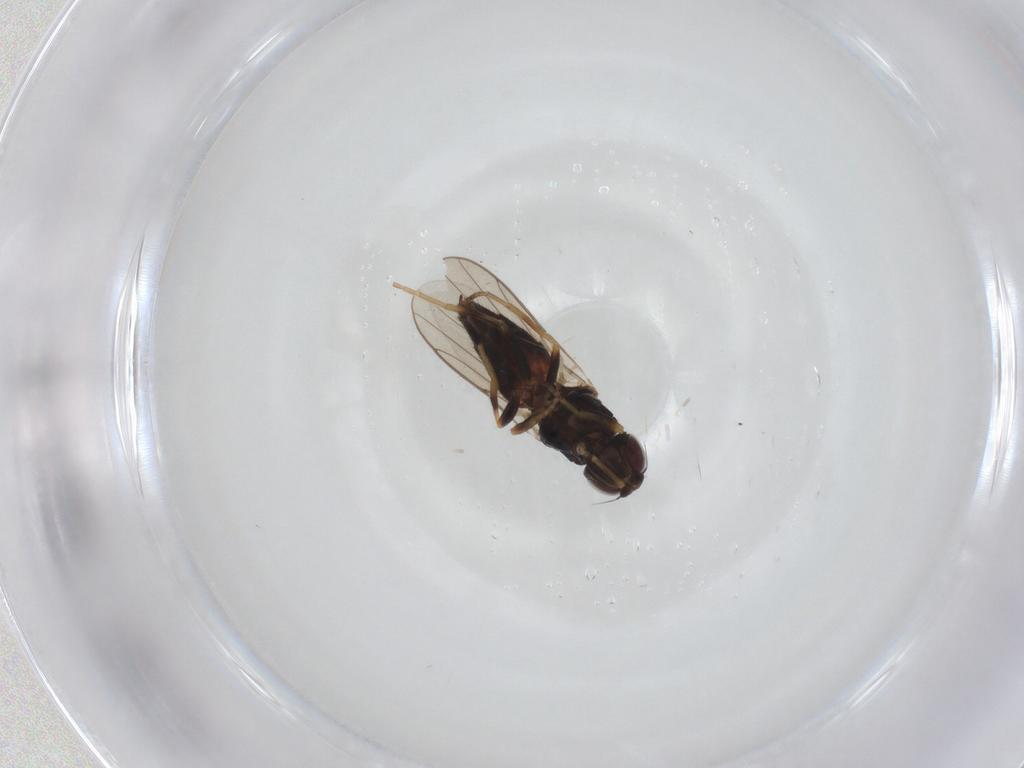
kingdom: Animalia
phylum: Arthropoda
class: Insecta
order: Diptera
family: Chloropidae
